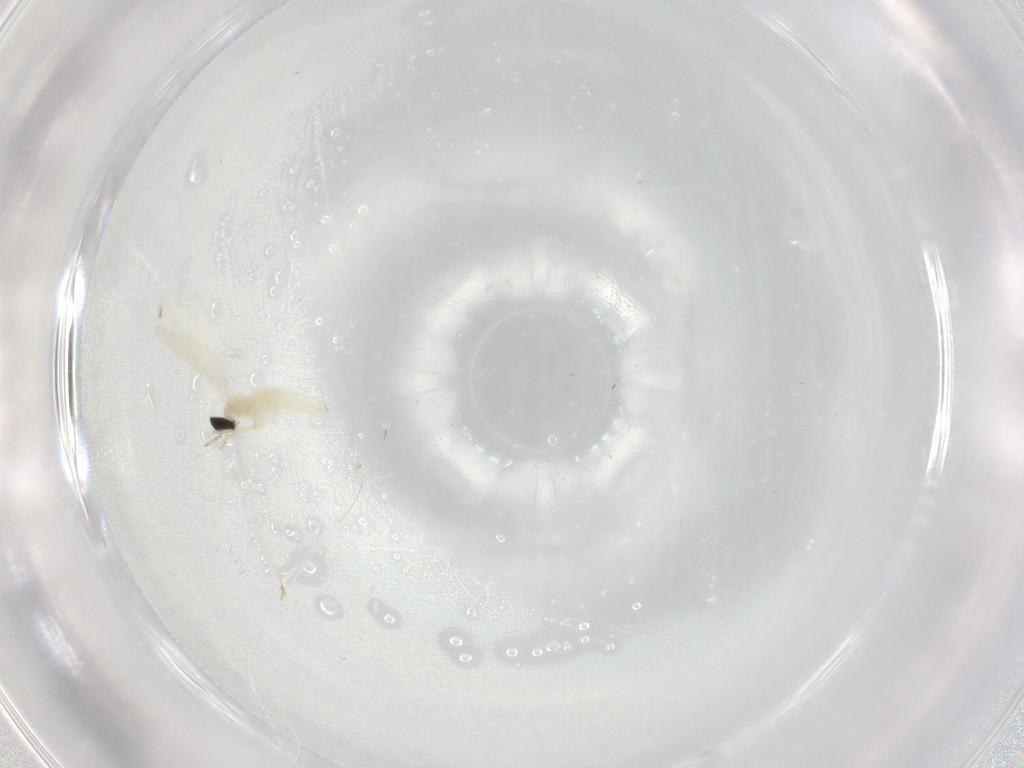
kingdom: Animalia
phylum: Arthropoda
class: Insecta
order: Diptera
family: Cecidomyiidae
